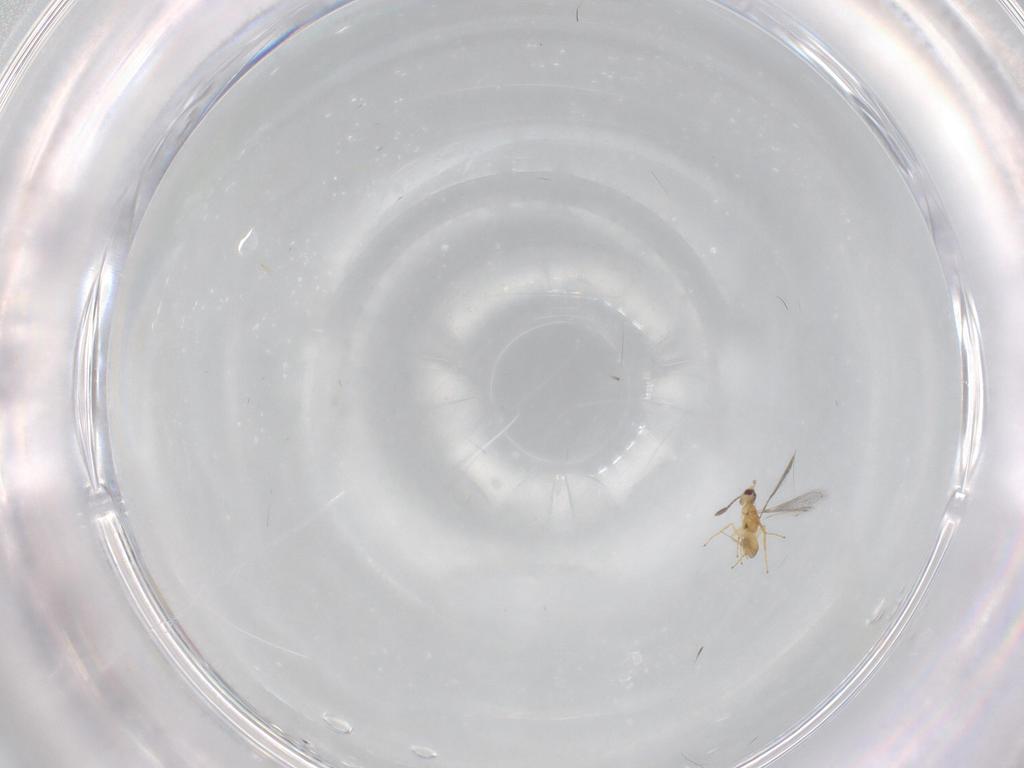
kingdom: Animalia
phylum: Arthropoda
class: Insecta
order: Hymenoptera
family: Mymaridae
